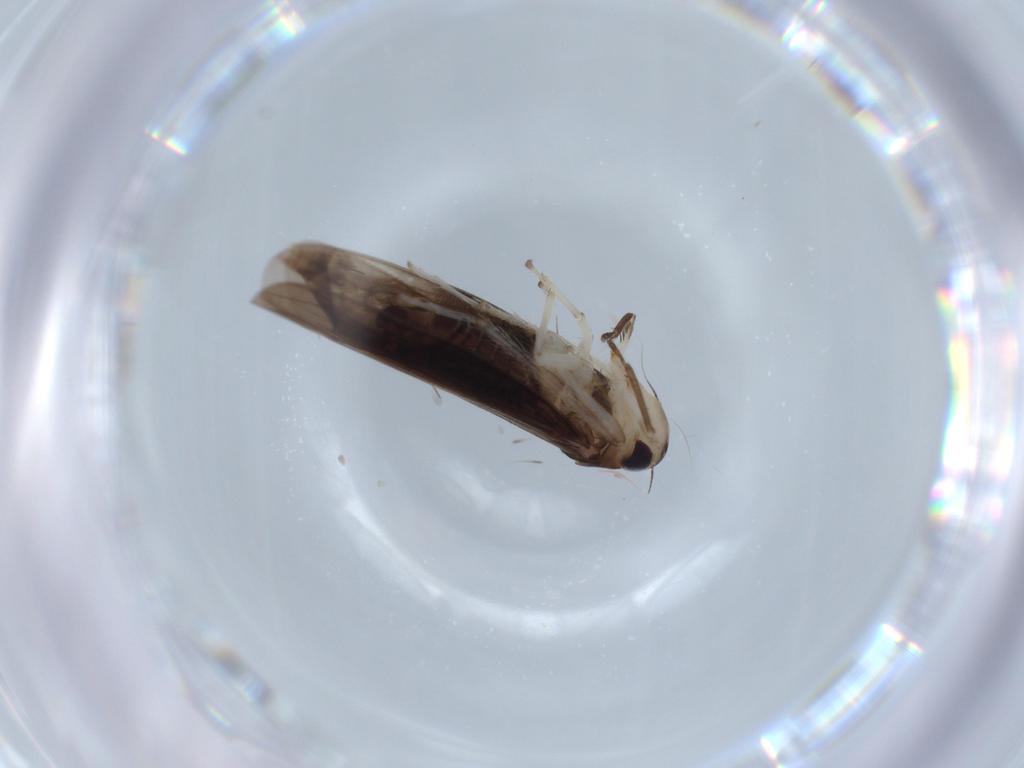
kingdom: Animalia
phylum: Arthropoda
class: Insecta
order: Hemiptera
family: Cicadellidae
